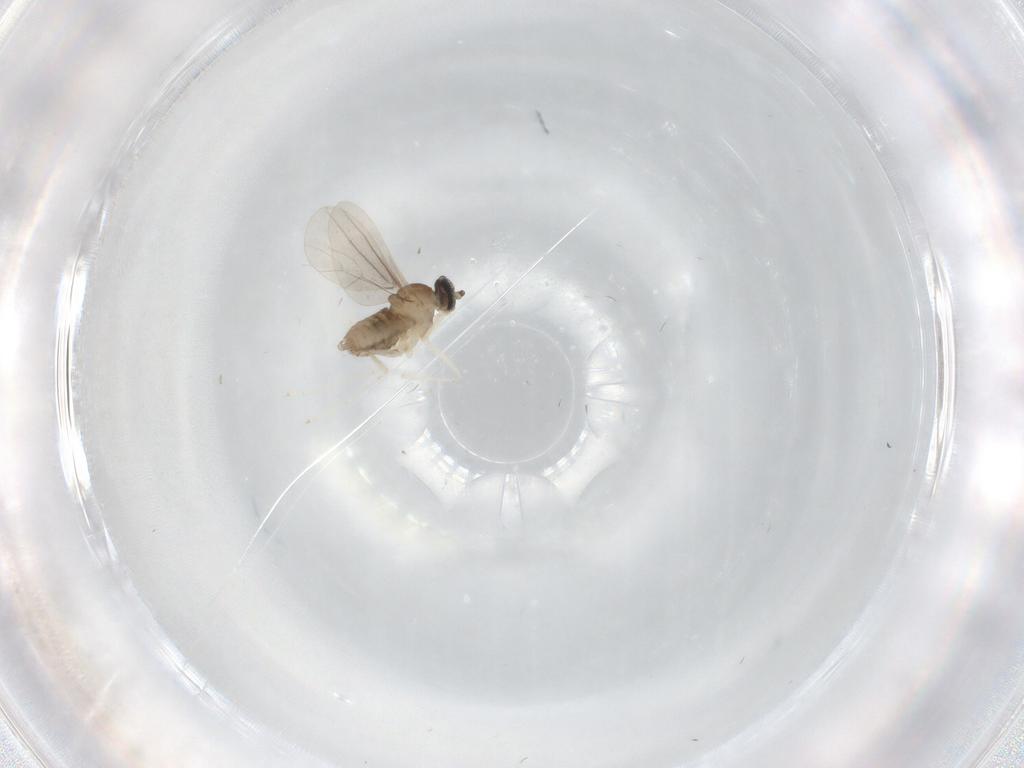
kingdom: Animalia
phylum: Arthropoda
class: Insecta
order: Diptera
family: Cecidomyiidae
